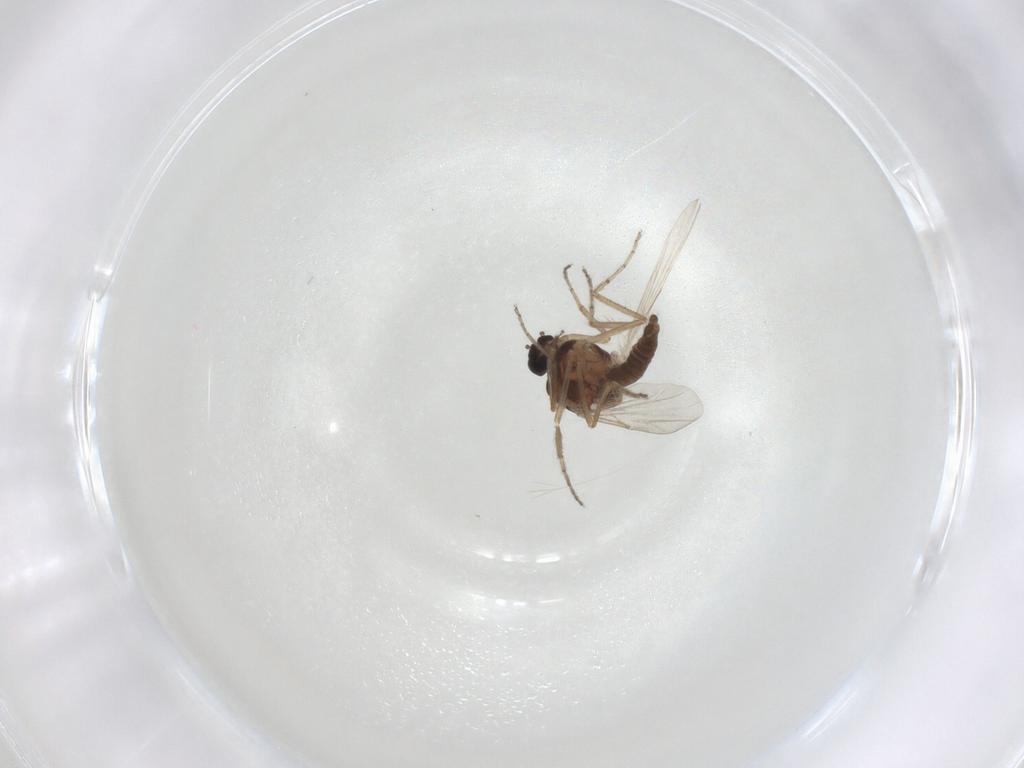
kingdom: Animalia
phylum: Arthropoda
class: Insecta
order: Diptera
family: Ceratopogonidae
